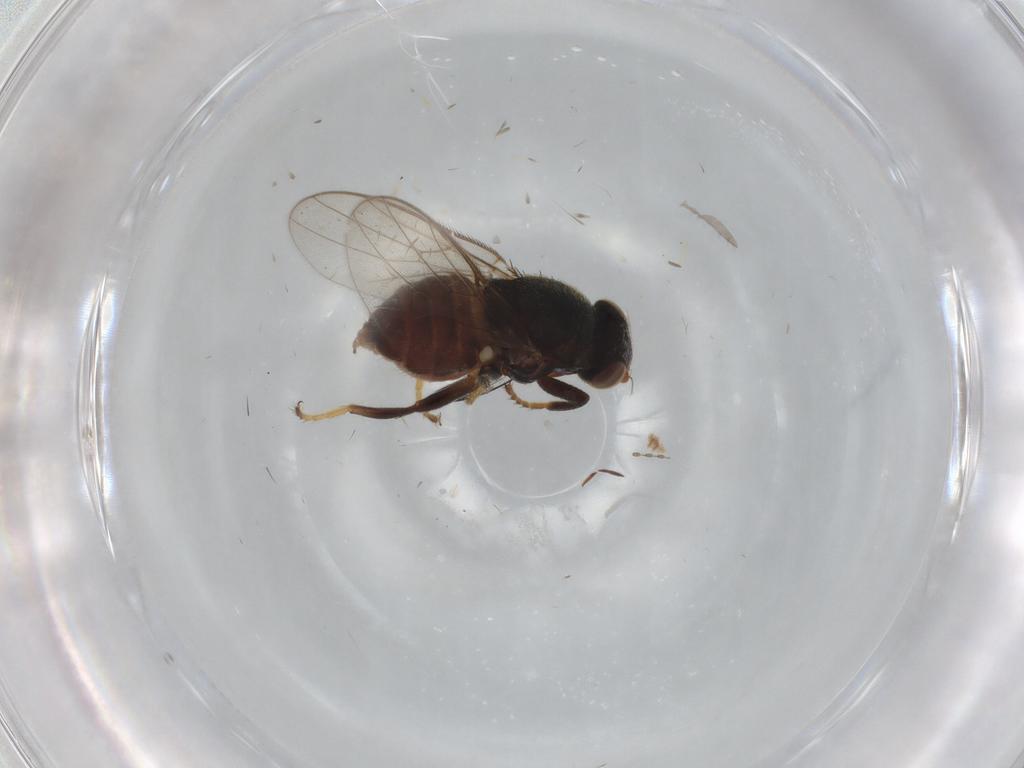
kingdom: Animalia
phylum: Arthropoda
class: Insecta
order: Diptera
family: Chloropidae
